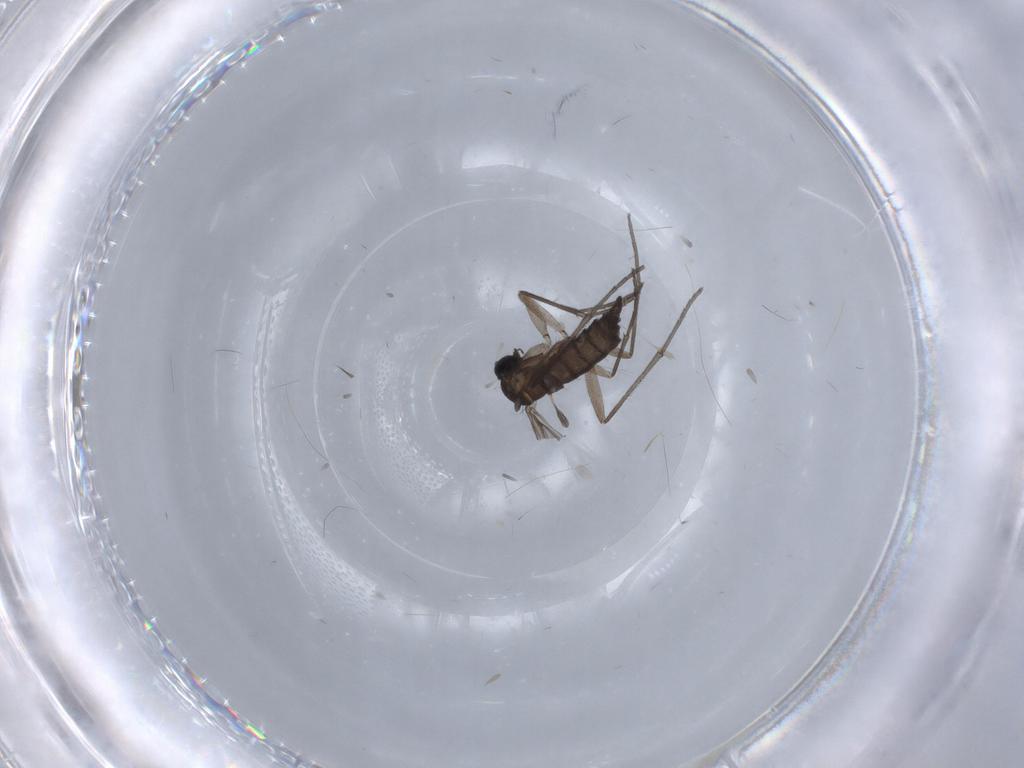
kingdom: Animalia
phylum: Arthropoda
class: Insecta
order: Diptera
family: Sciaridae
